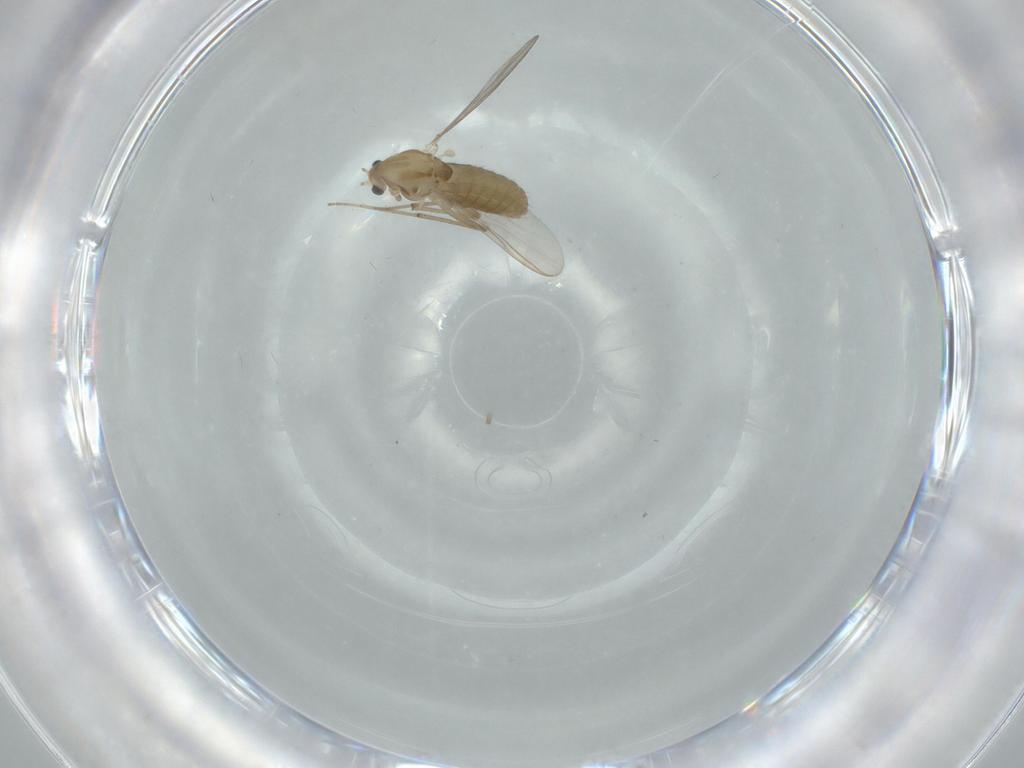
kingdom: Animalia
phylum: Arthropoda
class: Insecta
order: Diptera
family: Chironomidae
